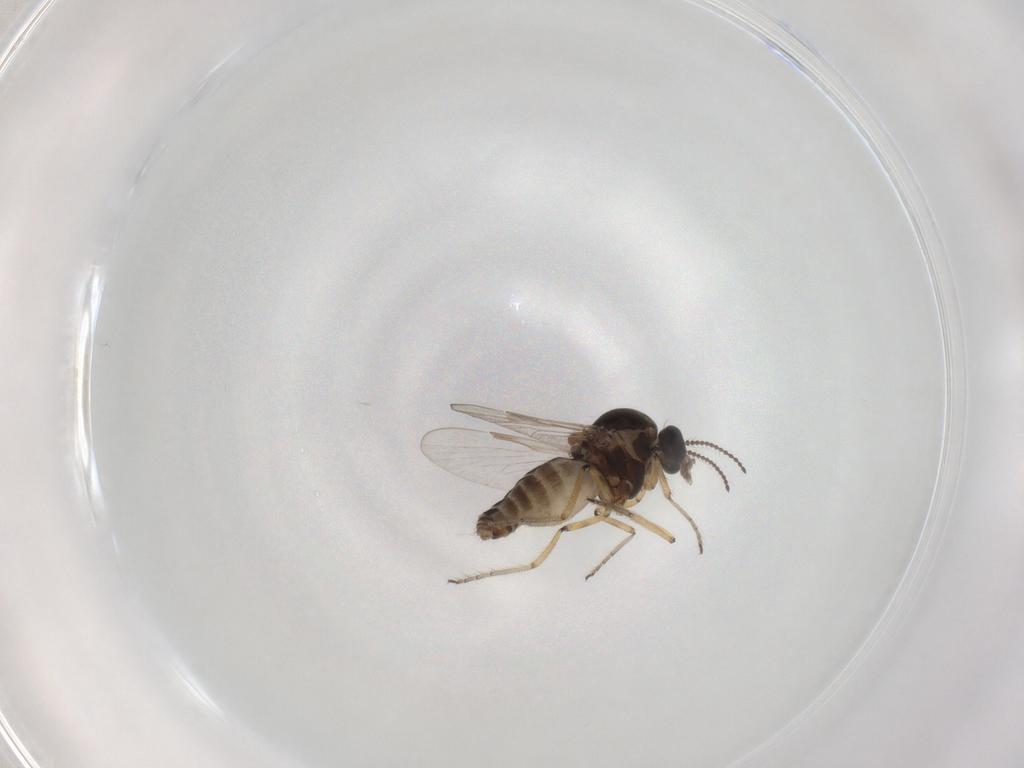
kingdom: Animalia
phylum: Arthropoda
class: Insecta
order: Diptera
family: Ceratopogonidae
